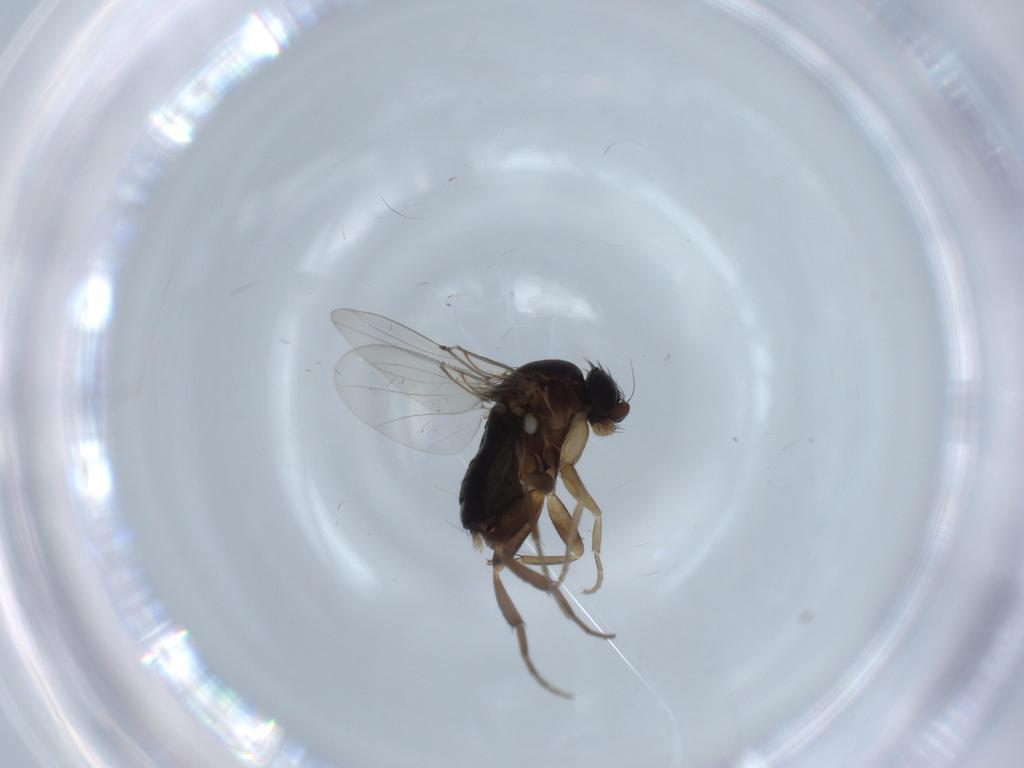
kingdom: Animalia
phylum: Arthropoda
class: Insecta
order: Diptera
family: Phoridae
